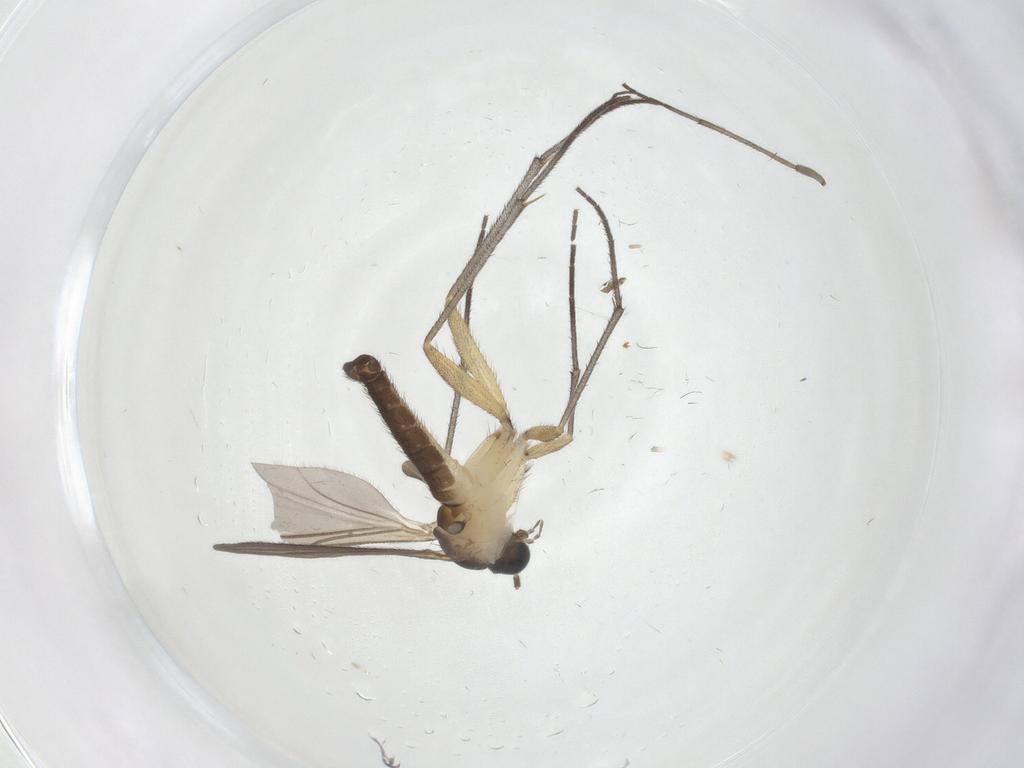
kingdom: Animalia
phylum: Arthropoda
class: Insecta
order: Diptera
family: Sciaridae
